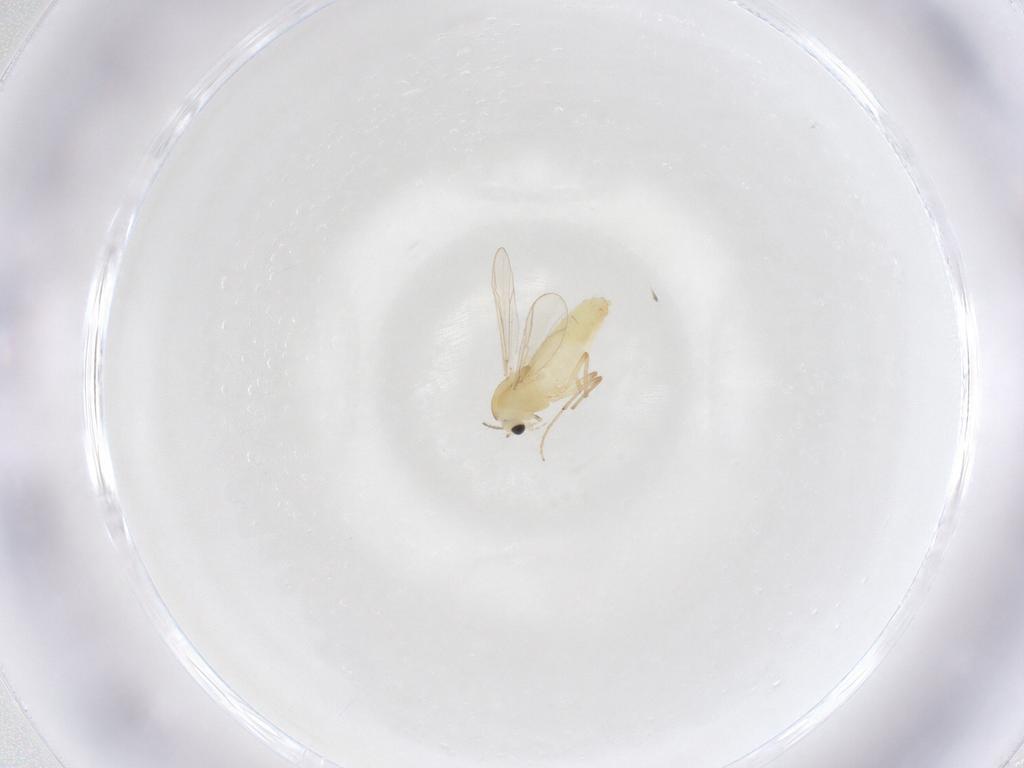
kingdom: Animalia
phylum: Arthropoda
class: Insecta
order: Diptera
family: Chironomidae
